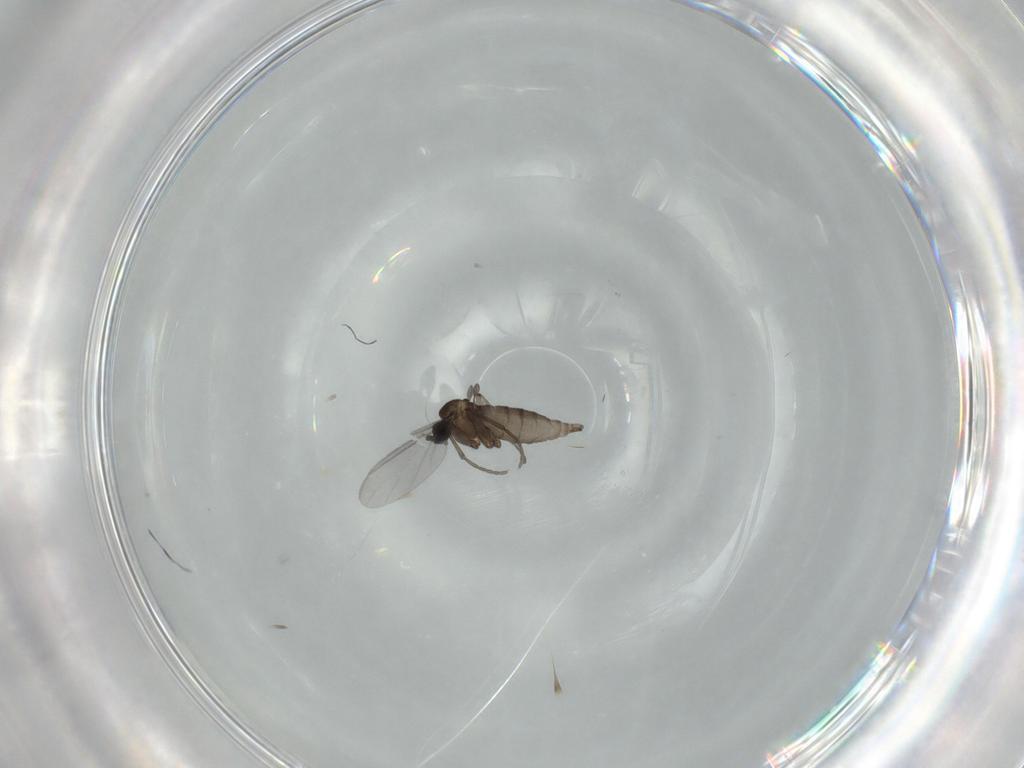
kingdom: Animalia
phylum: Arthropoda
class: Insecta
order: Diptera
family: Sciaridae
